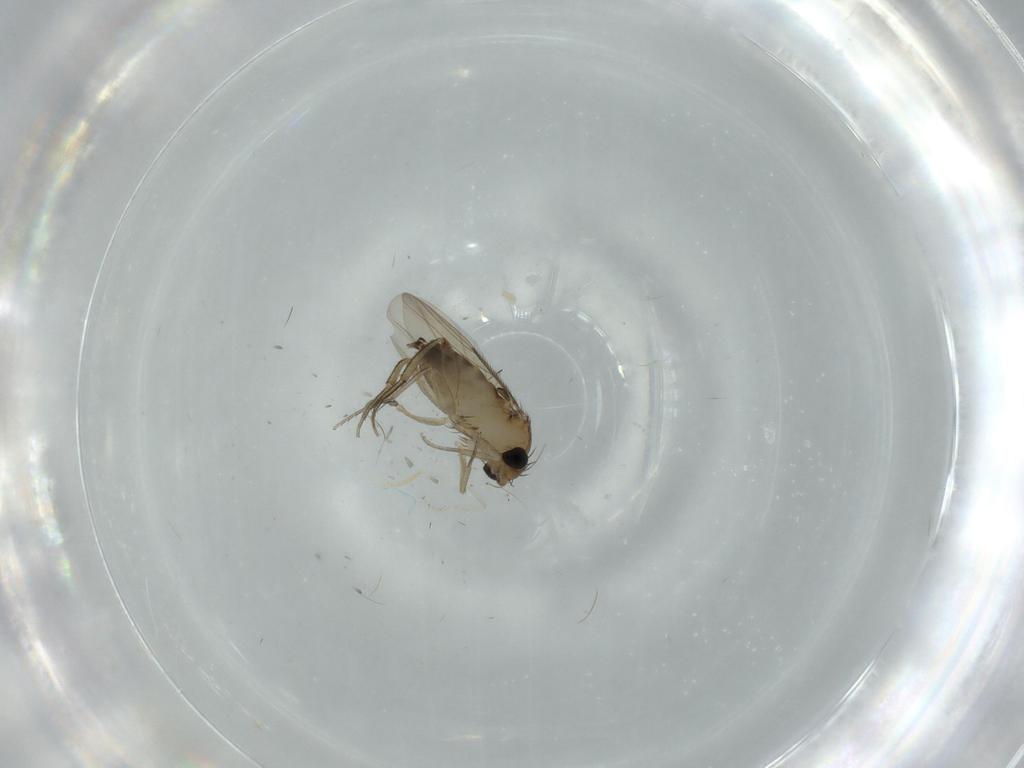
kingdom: Animalia
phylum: Arthropoda
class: Insecta
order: Diptera
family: Phoridae
